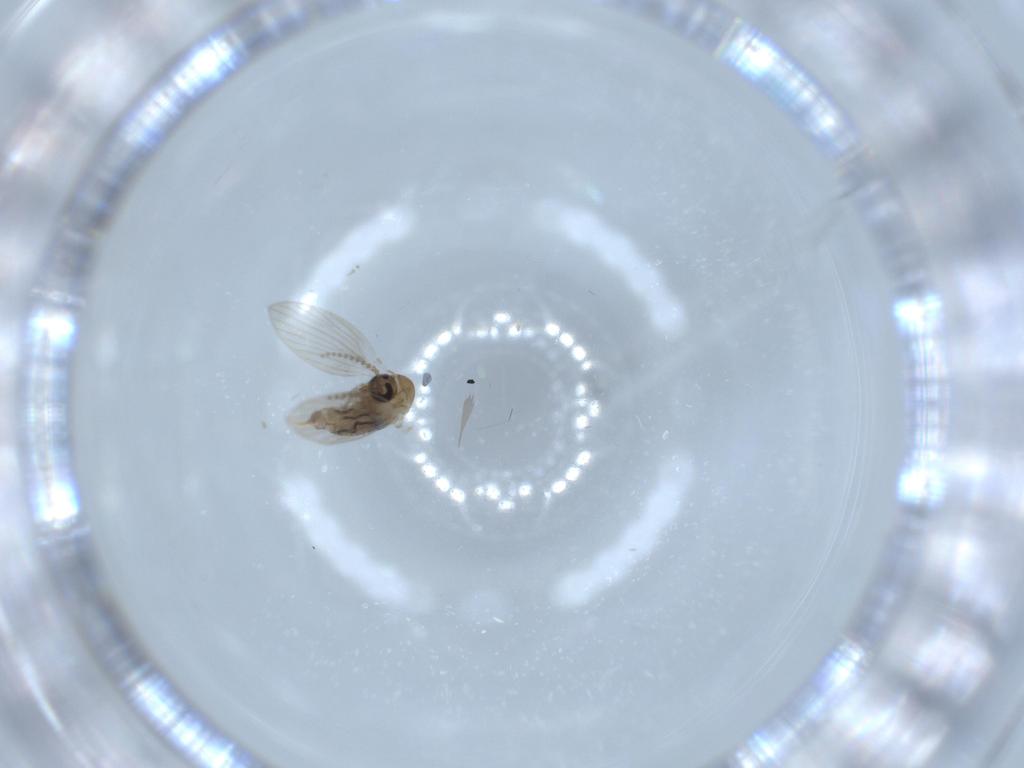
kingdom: Animalia
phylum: Arthropoda
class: Insecta
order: Diptera
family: Psychodidae
